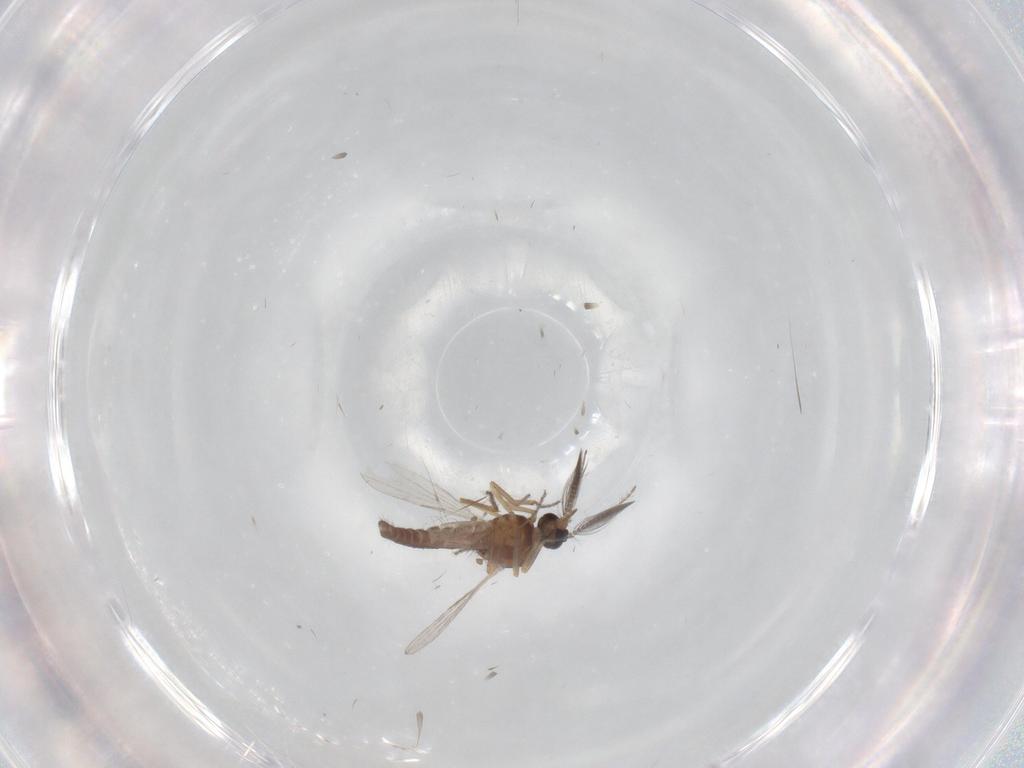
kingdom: Animalia
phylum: Arthropoda
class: Insecta
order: Diptera
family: Ceratopogonidae
